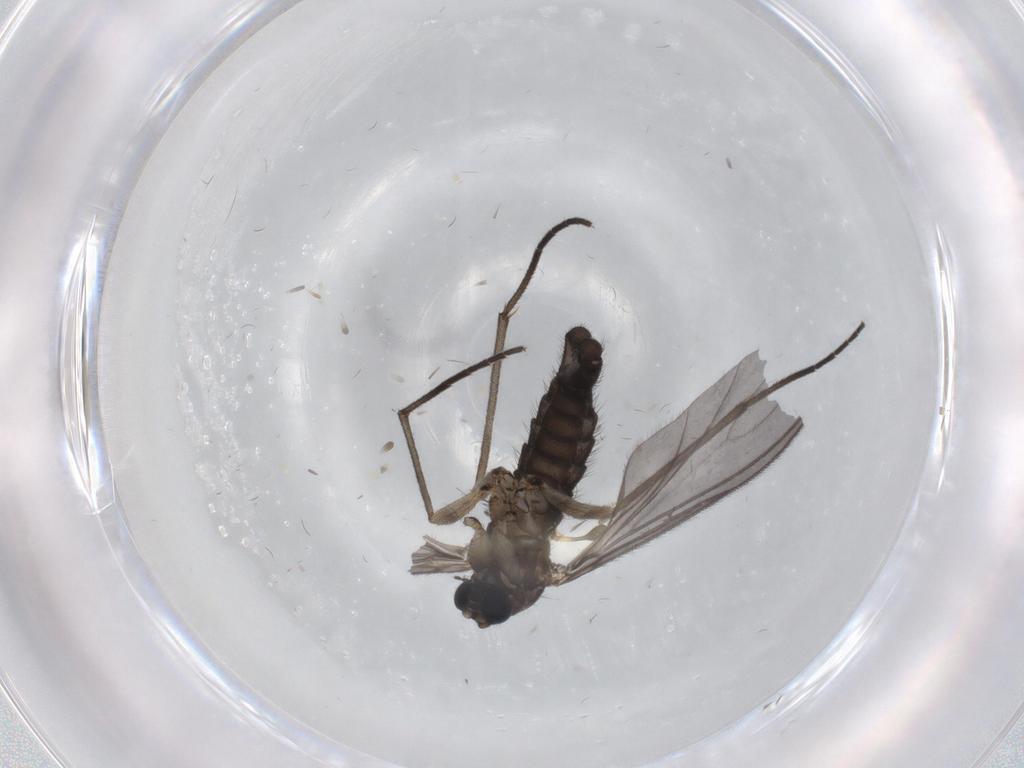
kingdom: Animalia
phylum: Arthropoda
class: Insecta
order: Diptera
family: Sciaridae
